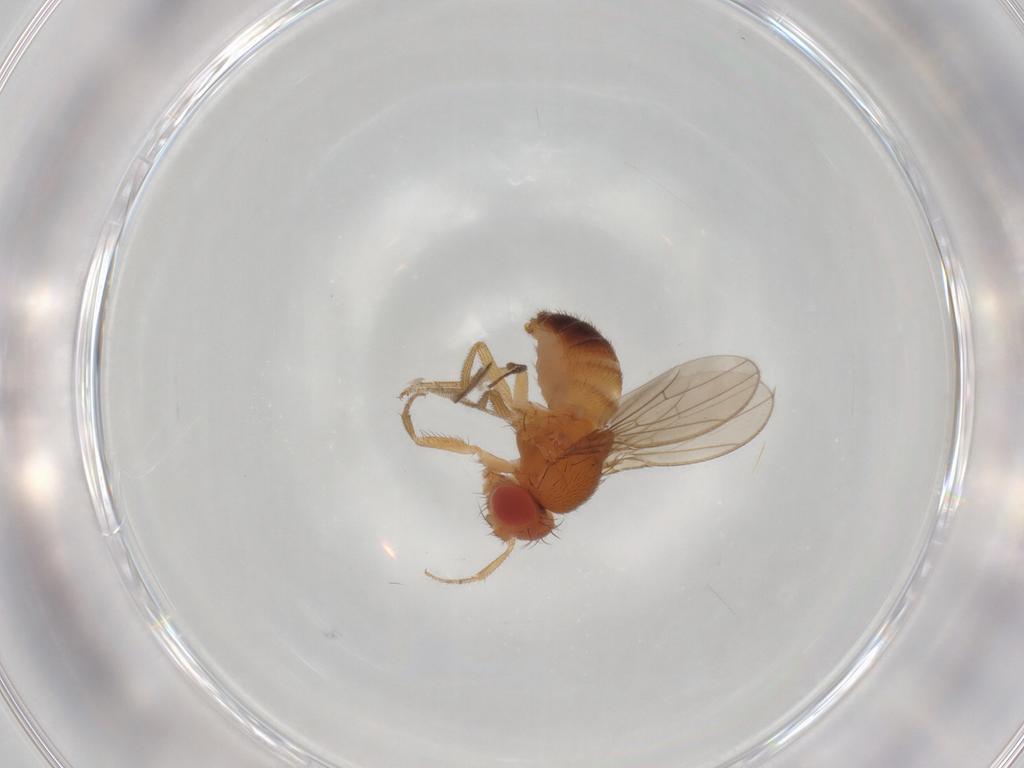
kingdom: Animalia
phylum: Arthropoda
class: Insecta
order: Diptera
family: Drosophilidae
